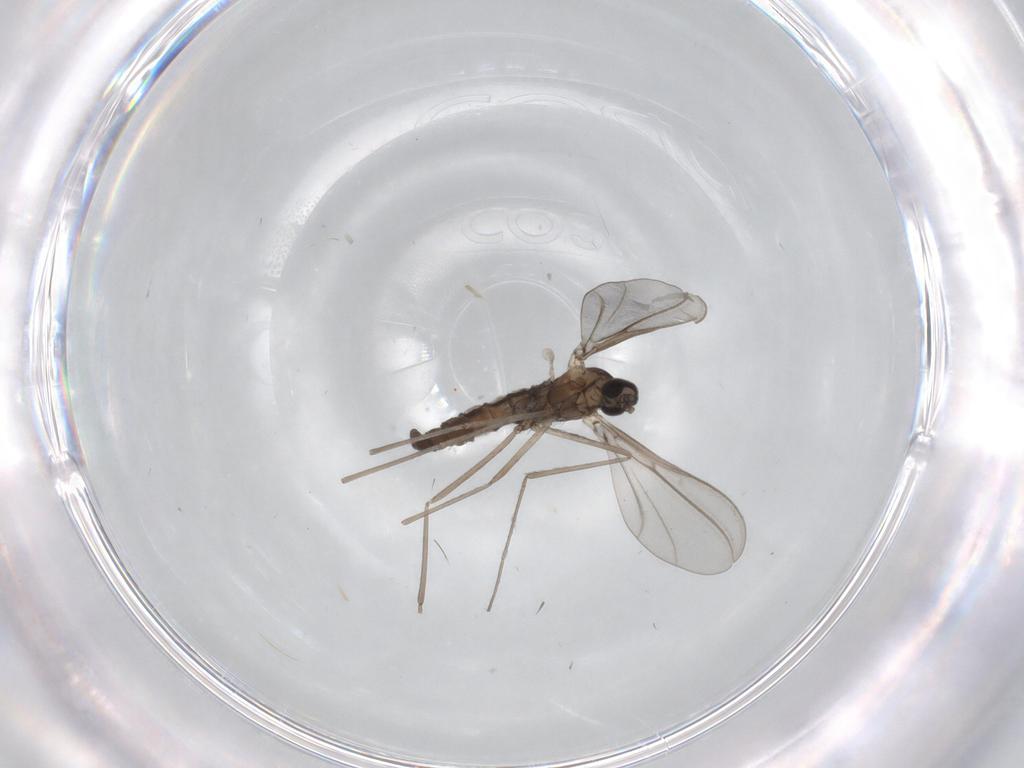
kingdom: Animalia
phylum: Arthropoda
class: Insecta
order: Diptera
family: Cecidomyiidae
